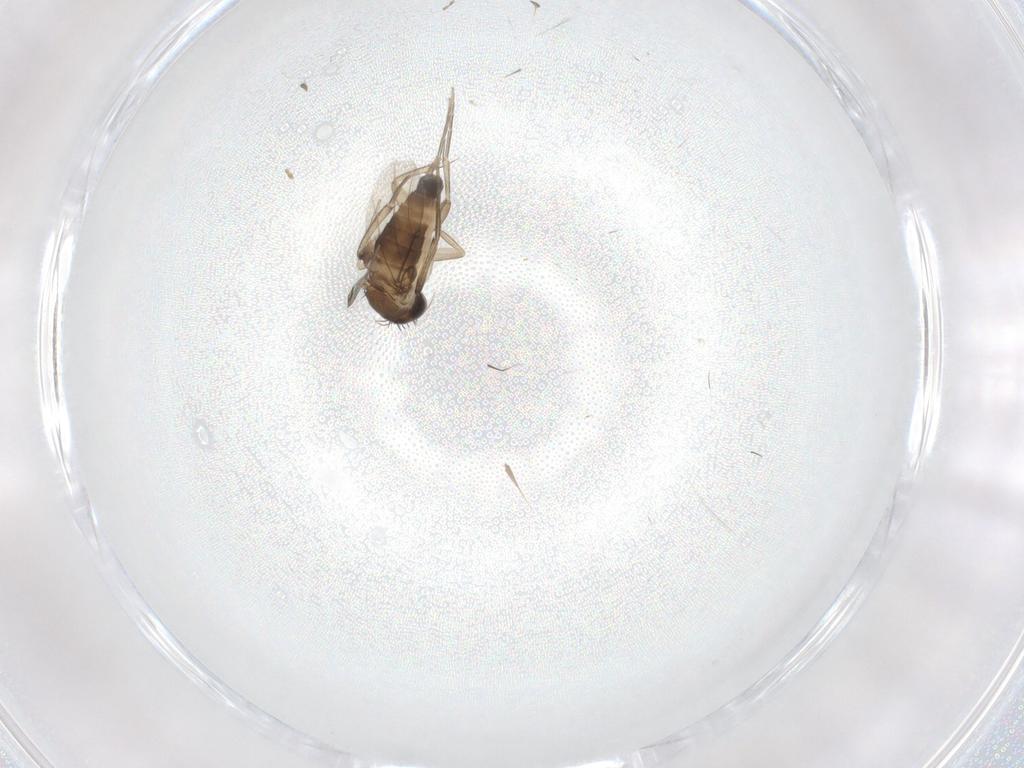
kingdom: Animalia
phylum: Arthropoda
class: Insecta
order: Diptera
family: Phoridae
